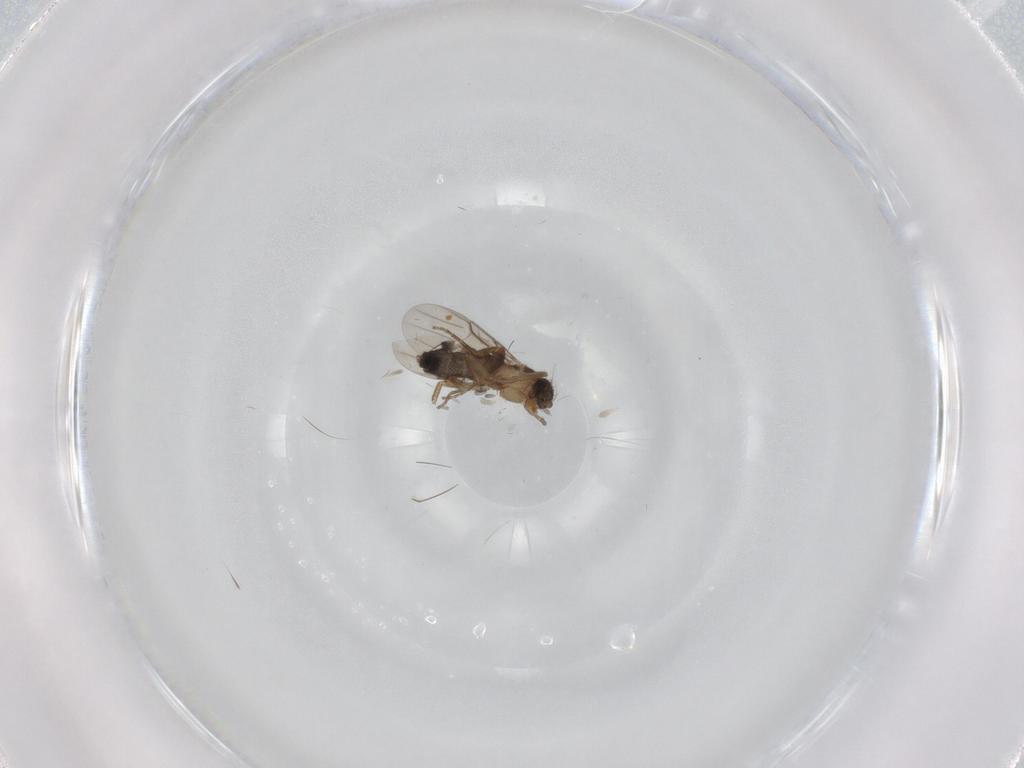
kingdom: Animalia
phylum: Arthropoda
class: Insecta
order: Diptera
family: Phoridae
